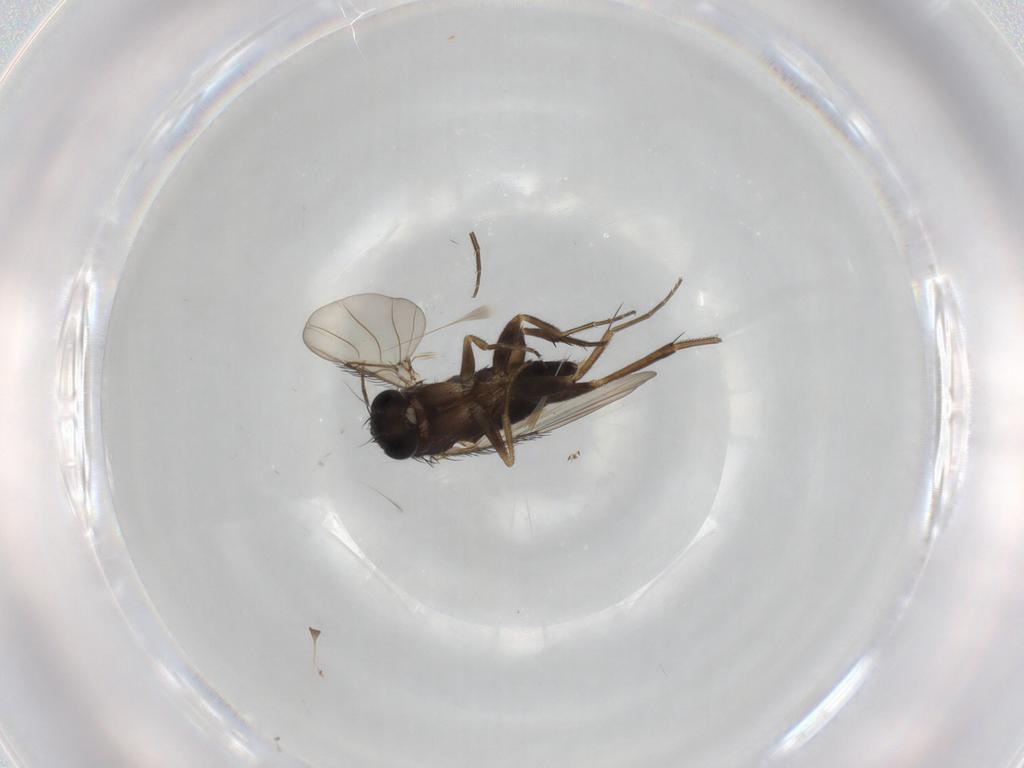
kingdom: Animalia
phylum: Arthropoda
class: Insecta
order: Diptera
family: Phoridae
